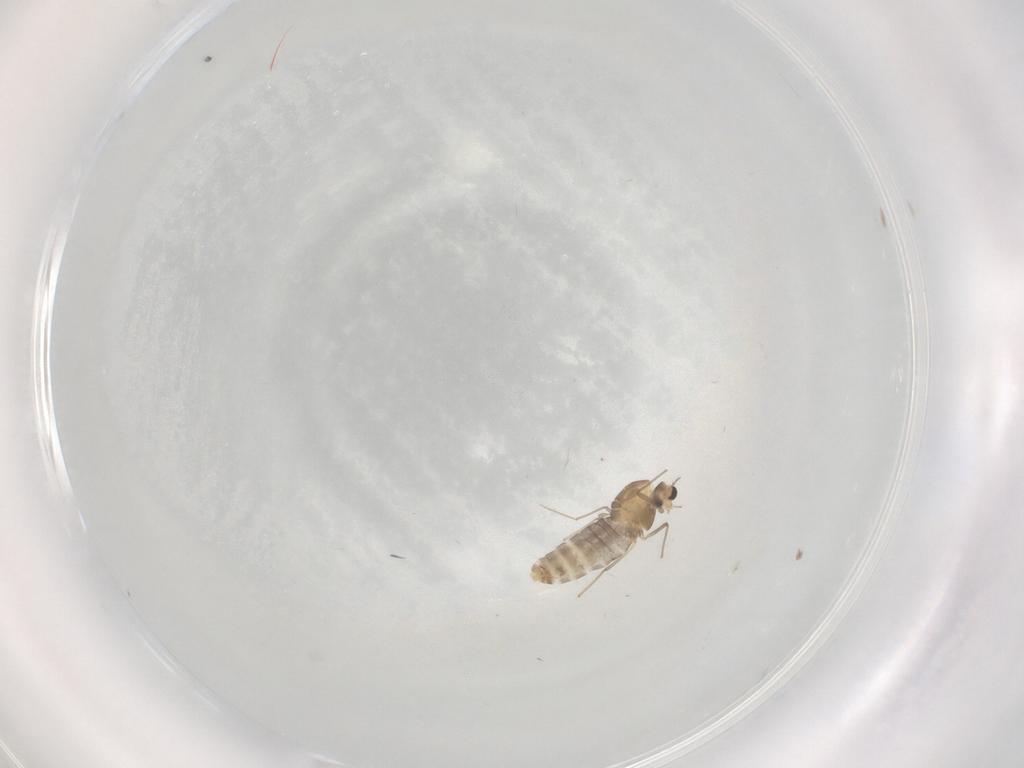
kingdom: Animalia
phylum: Arthropoda
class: Insecta
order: Diptera
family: Chironomidae
